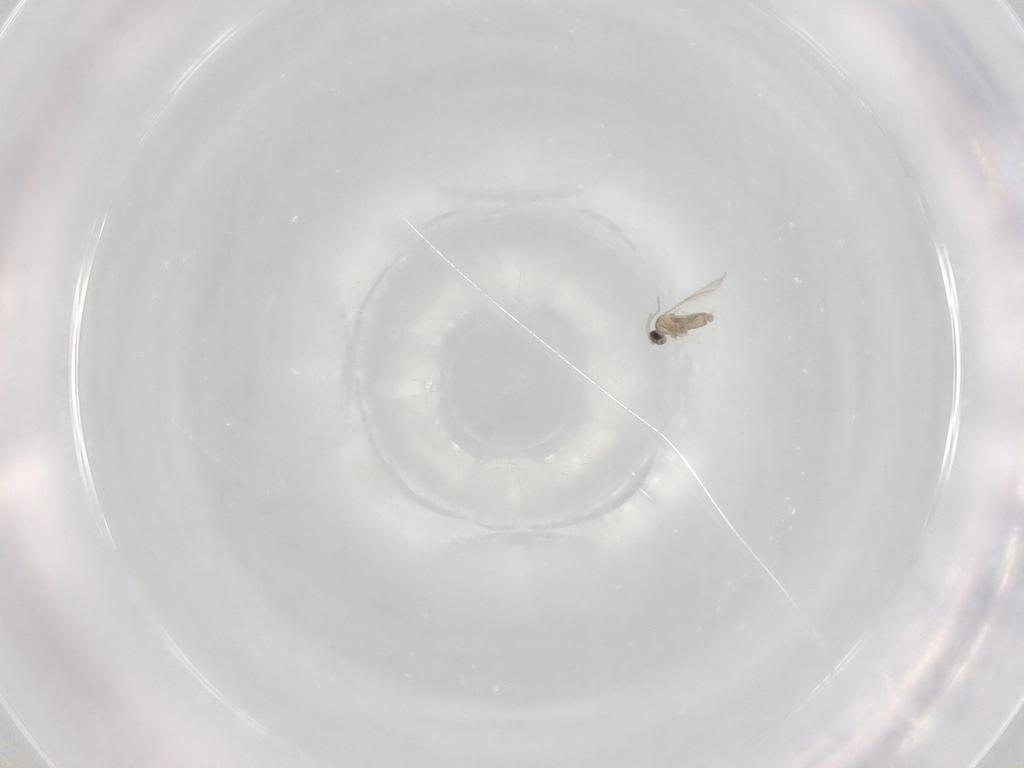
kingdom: Animalia
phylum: Arthropoda
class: Insecta
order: Diptera
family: Cecidomyiidae
